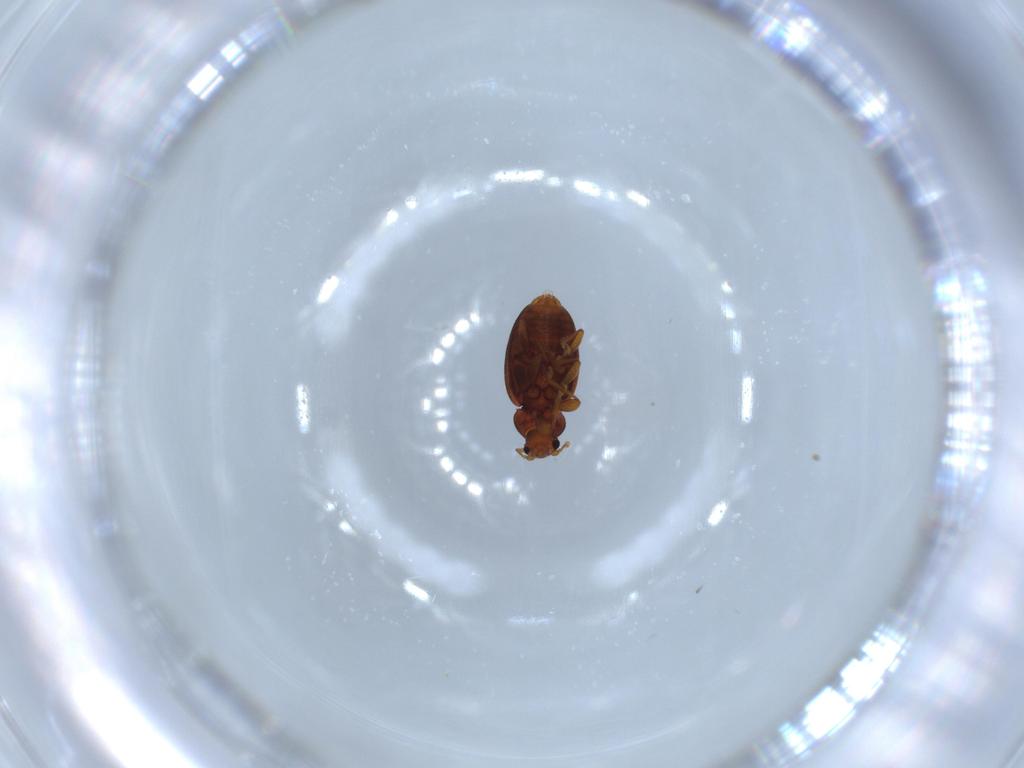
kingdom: Animalia
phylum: Arthropoda
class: Insecta
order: Coleoptera
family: Latridiidae
